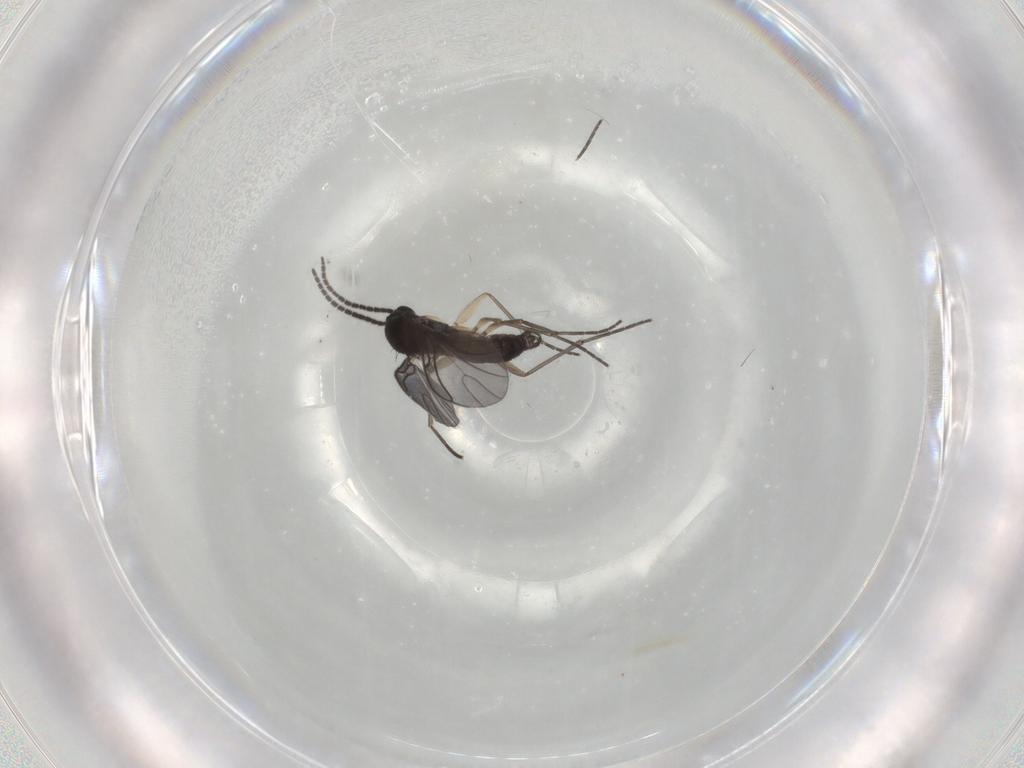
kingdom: Animalia
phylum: Arthropoda
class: Insecta
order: Diptera
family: Sciaridae
